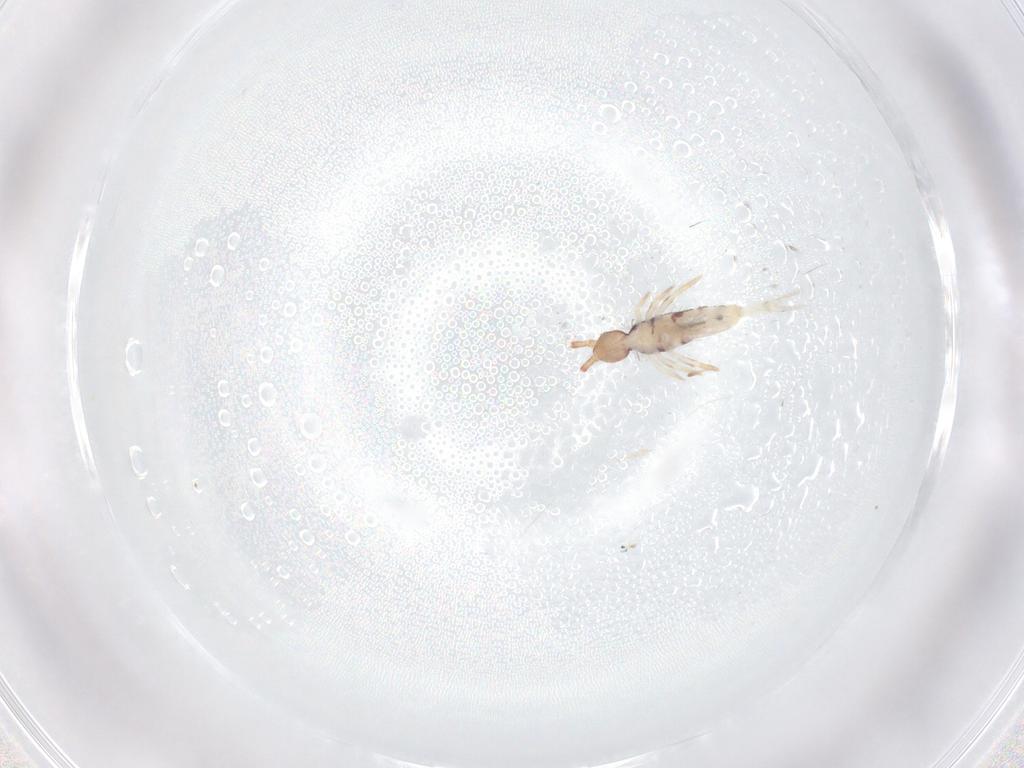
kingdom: Animalia
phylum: Arthropoda
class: Collembola
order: Entomobryomorpha
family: Entomobryidae
